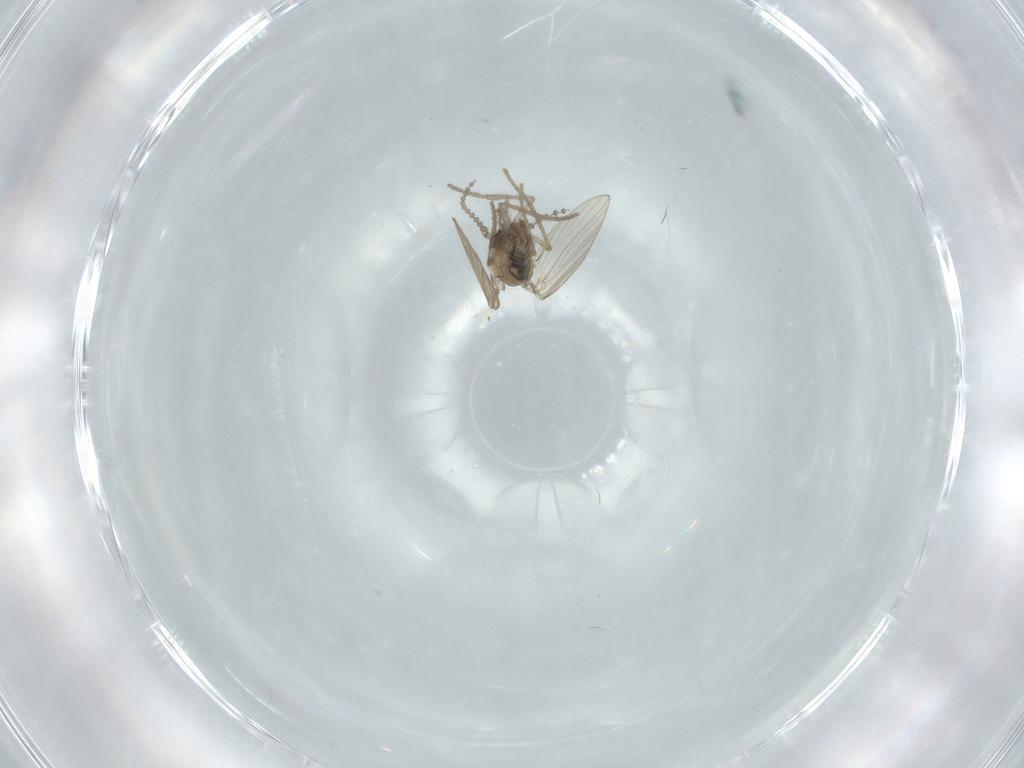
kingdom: Animalia
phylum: Arthropoda
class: Insecta
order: Diptera
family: Psychodidae
